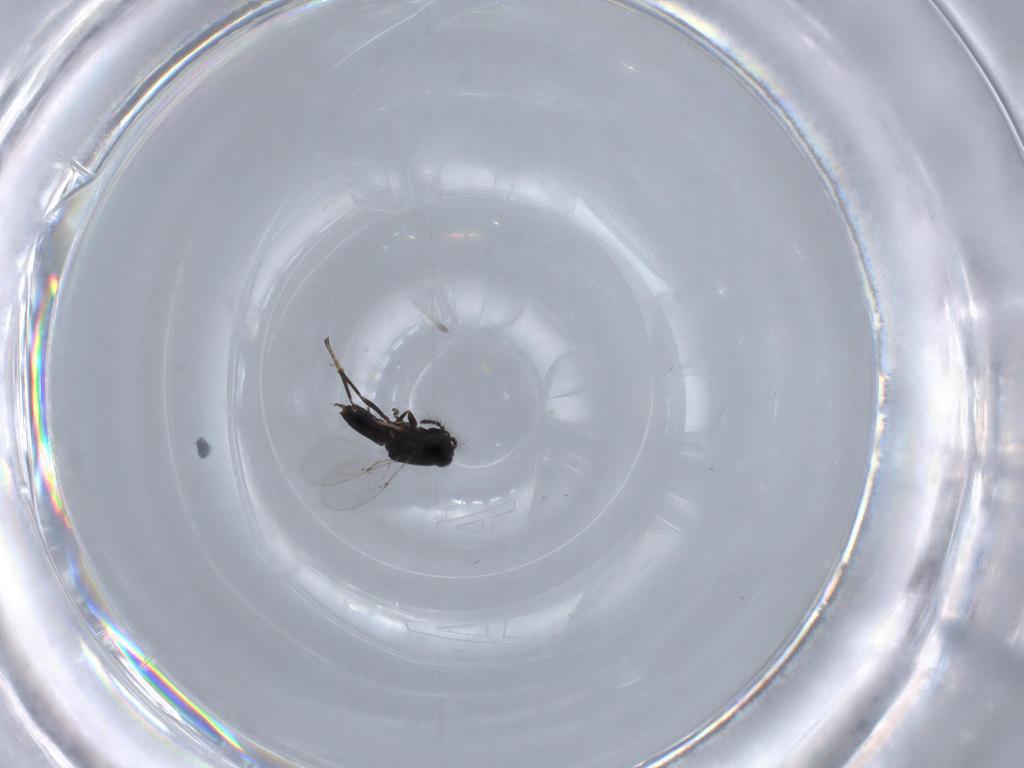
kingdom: Animalia
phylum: Arthropoda
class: Insecta
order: Hymenoptera
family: Aphelinidae
